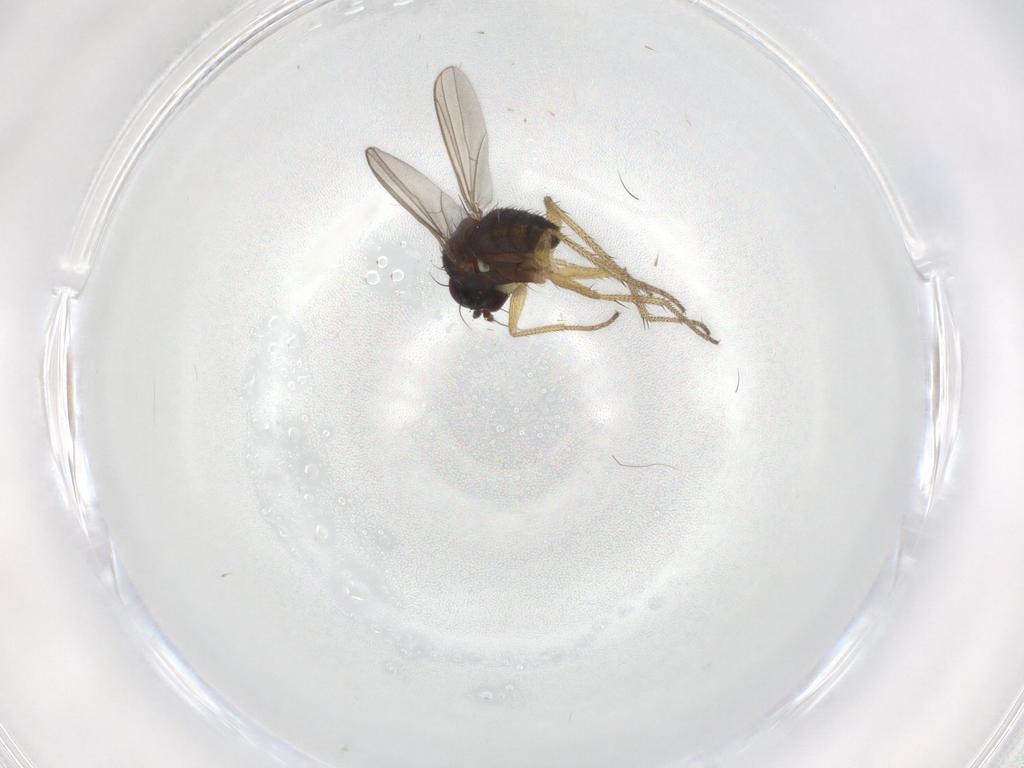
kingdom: Animalia
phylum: Arthropoda
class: Insecta
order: Diptera
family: Dolichopodidae
